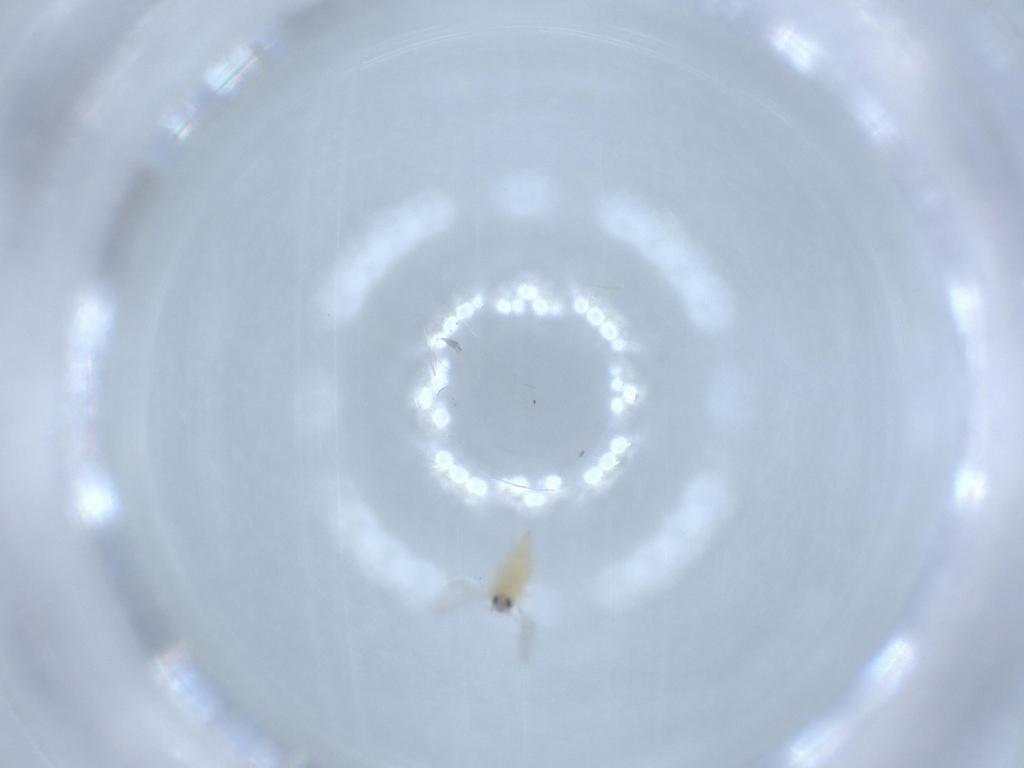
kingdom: Animalia
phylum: Arthropoda
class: Insecta
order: Diptera
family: Cecidomyiidae
